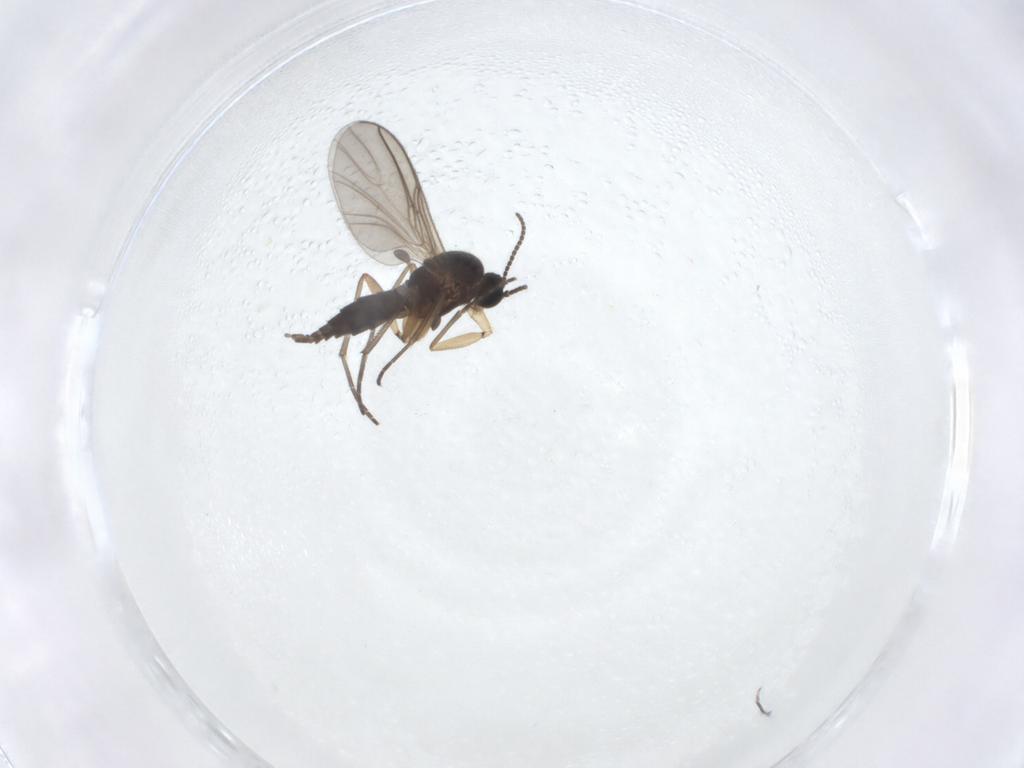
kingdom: Animalia
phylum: Arthropoda
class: Insecta
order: Diptera
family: Sciaridae
